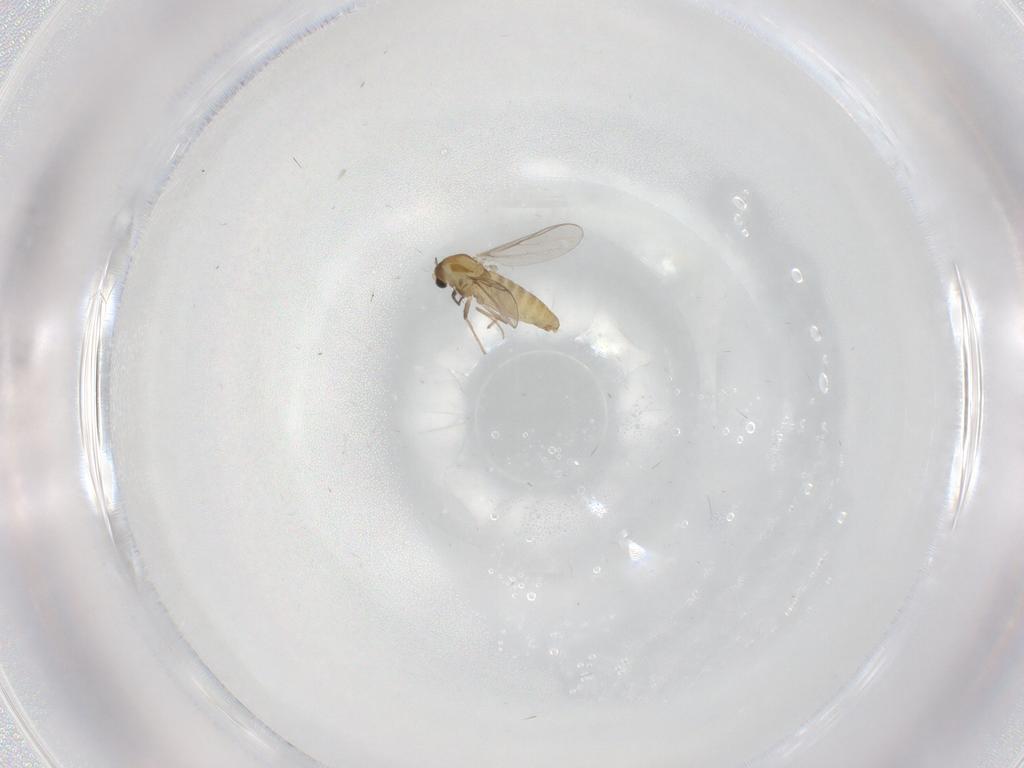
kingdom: Animalia
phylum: Arthropoda
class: Insecta
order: Diptera
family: Chironomidae
